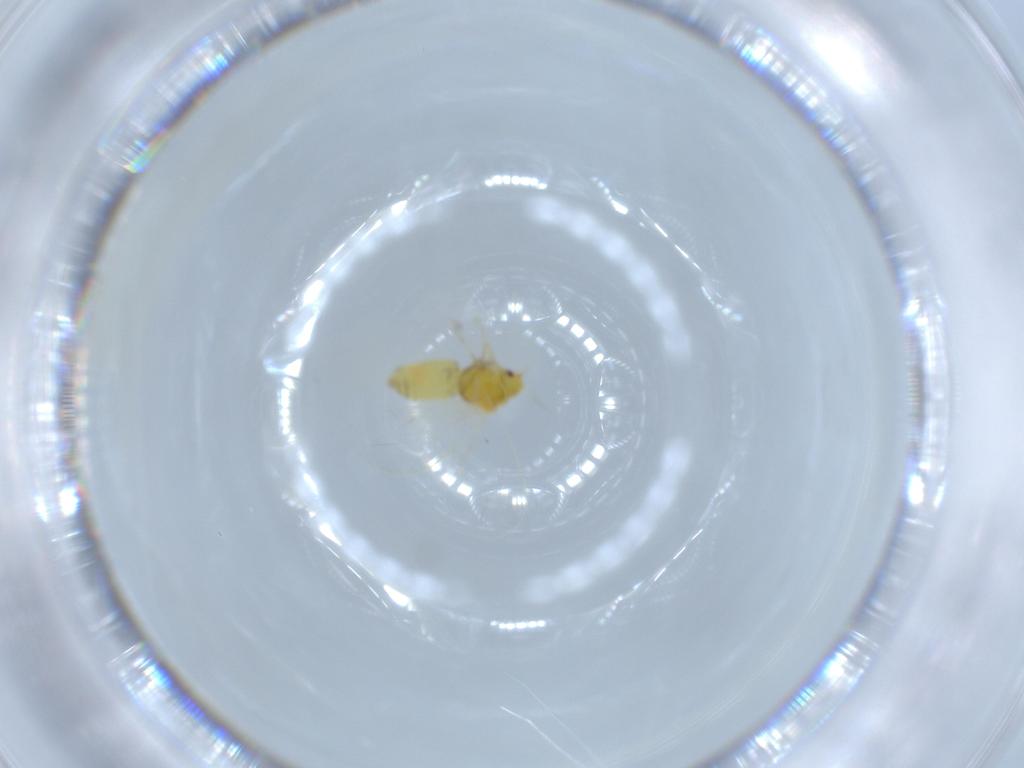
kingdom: Animalia
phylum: Arthropoda
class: Insecta
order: Hemiptera
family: Aleyrodidae
